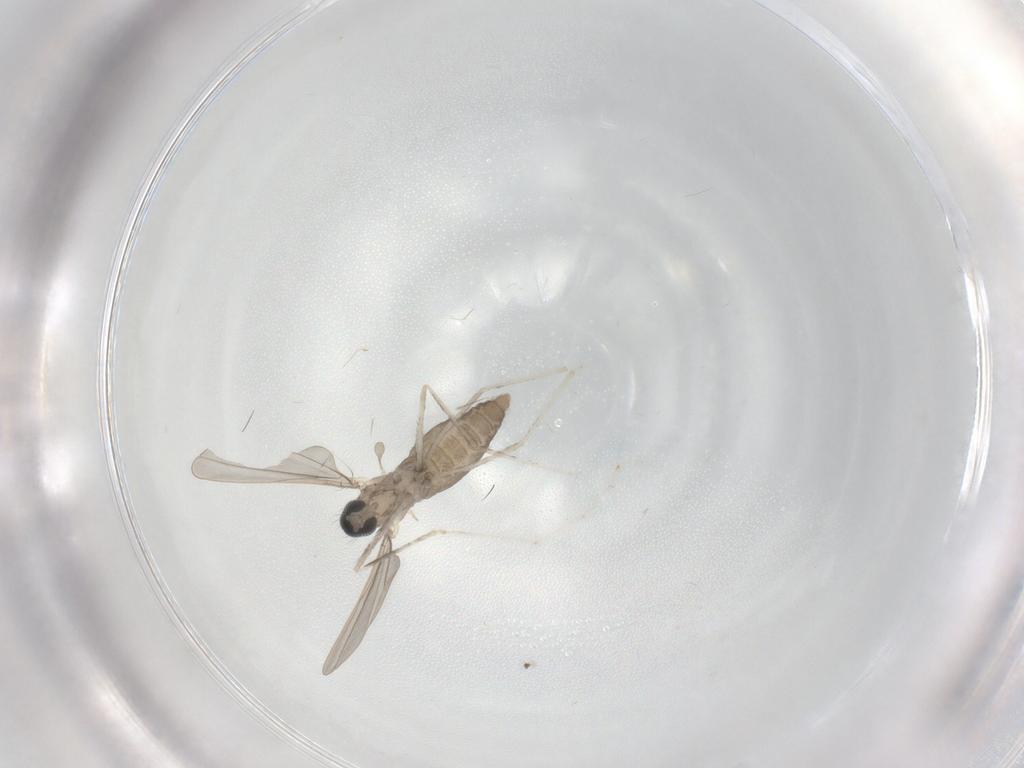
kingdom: Animalia
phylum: Arthropoda
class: Insecta
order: Diptera
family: Cecidomyiidae
